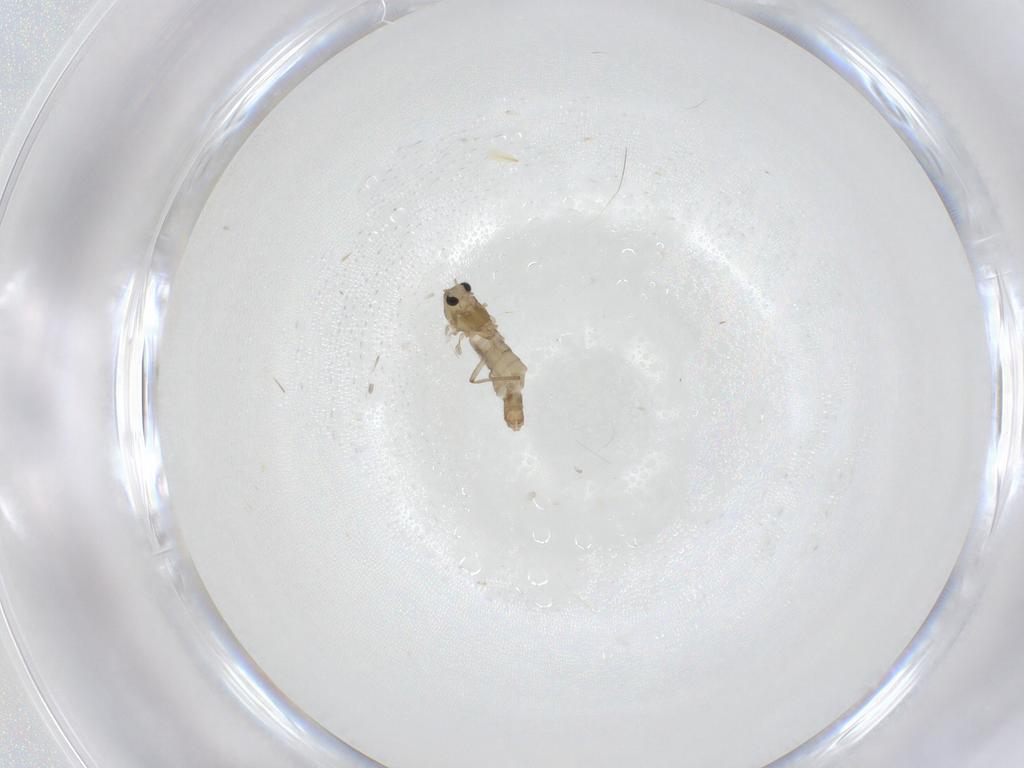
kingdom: Animalia
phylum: Arthropoda
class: Insecta
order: Diptera
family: Chironomidae
